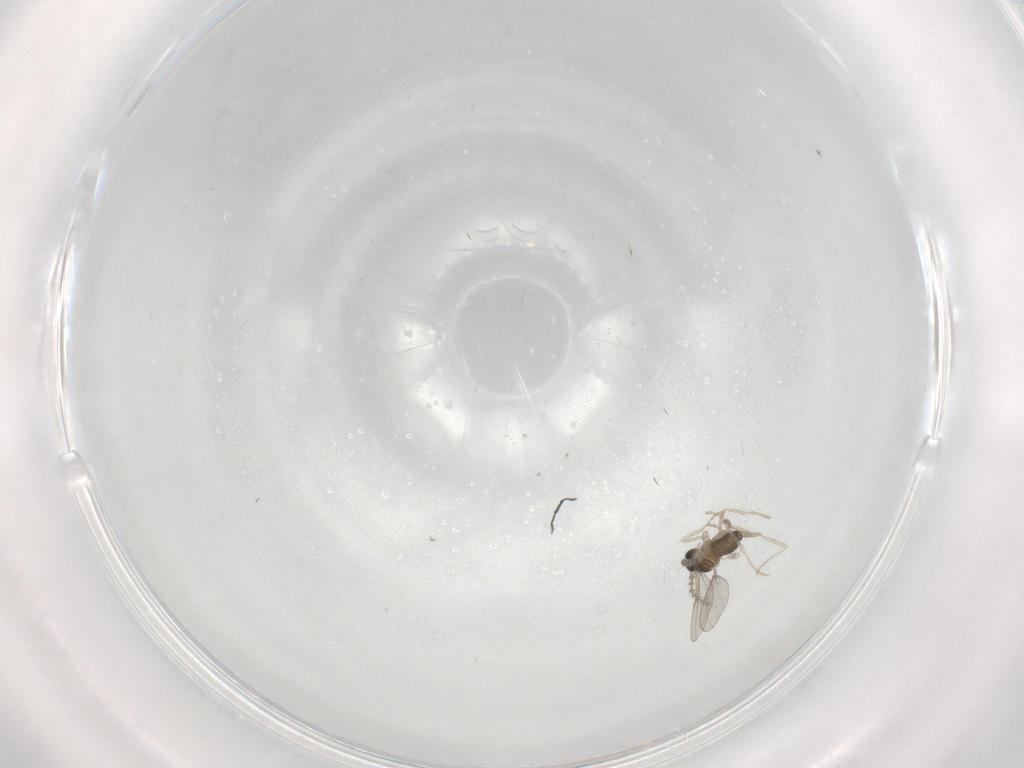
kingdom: Animalia
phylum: Arthropoda
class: Insecta
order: Diptera
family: Cecidomyiidae
